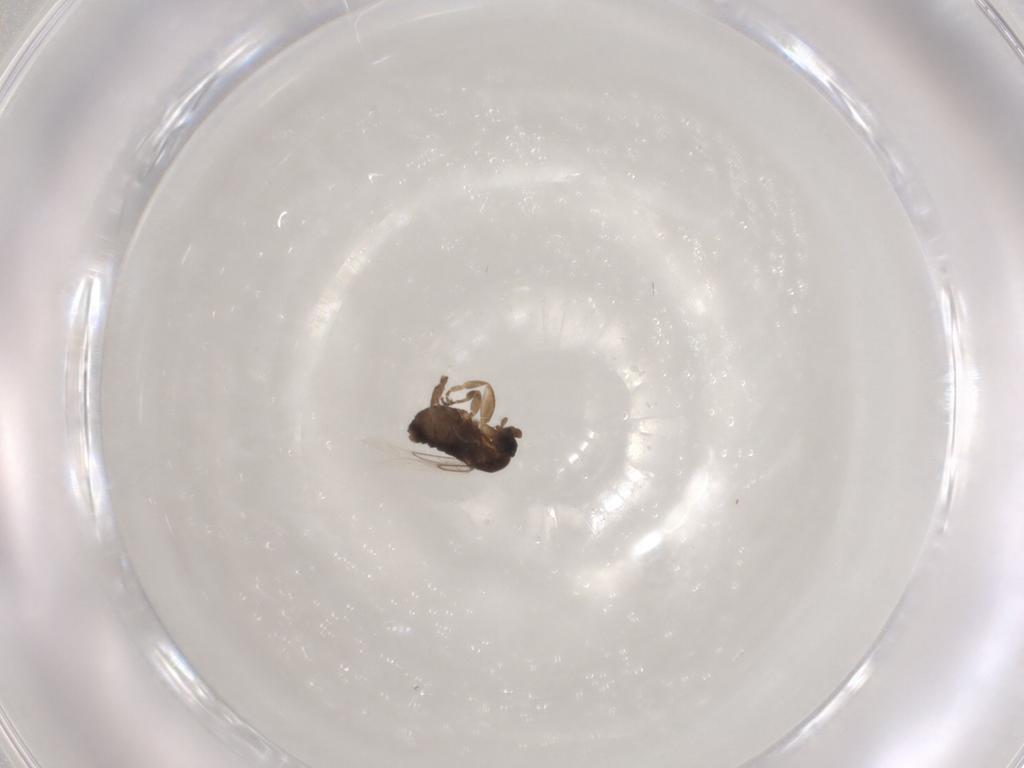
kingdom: Animalia
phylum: Arthropoda
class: Insecta
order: Diptera
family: Phoridae
